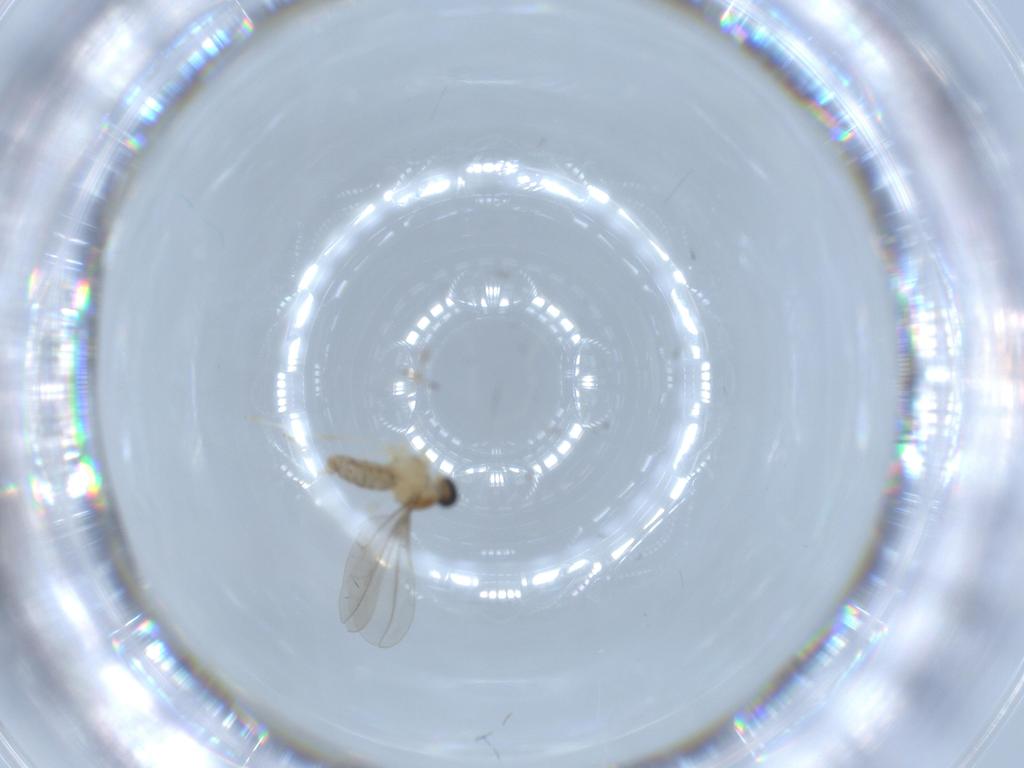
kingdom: Animalia
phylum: Arthropoda
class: Insecta
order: Diptera
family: Cecidomyiidae
